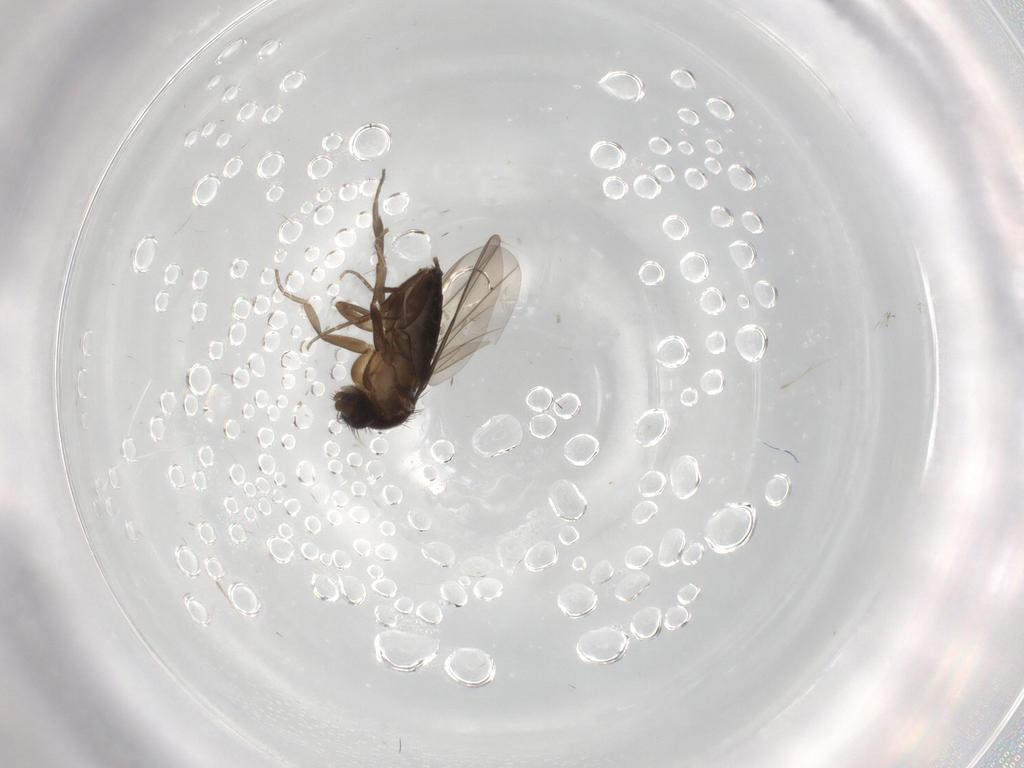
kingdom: Animalia
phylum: Arthropoda
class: Insecta
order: Diptera
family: Phoridae
